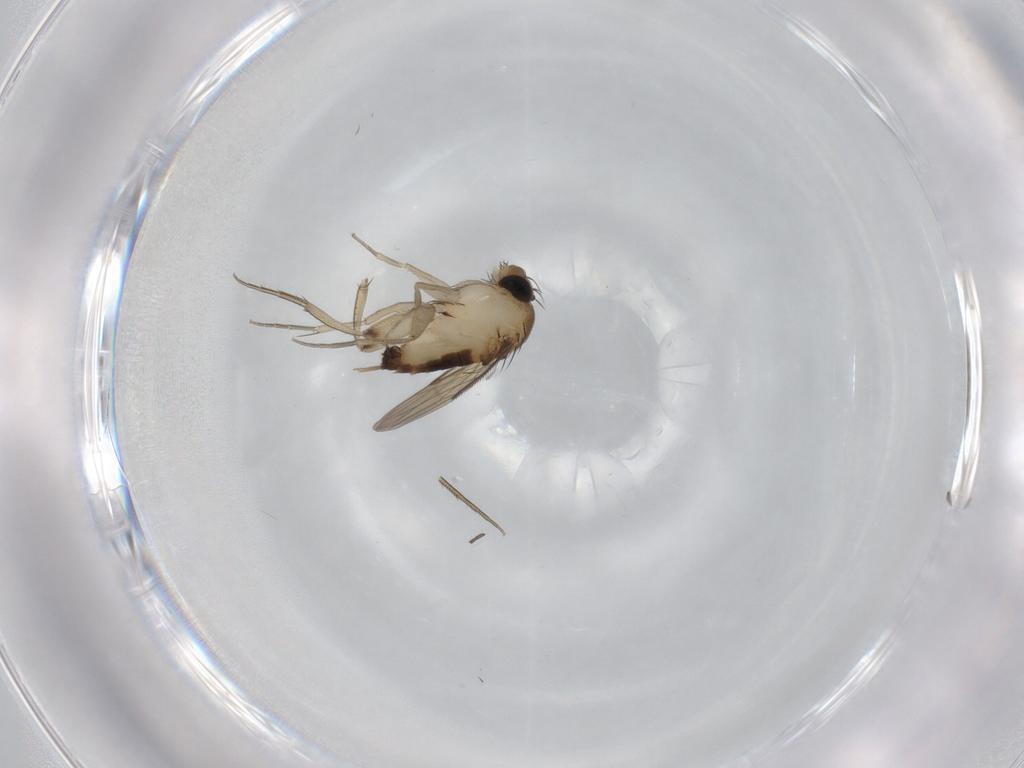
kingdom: Animalia
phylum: Arthropoda
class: Insecta
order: Diptera
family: Phoridae
